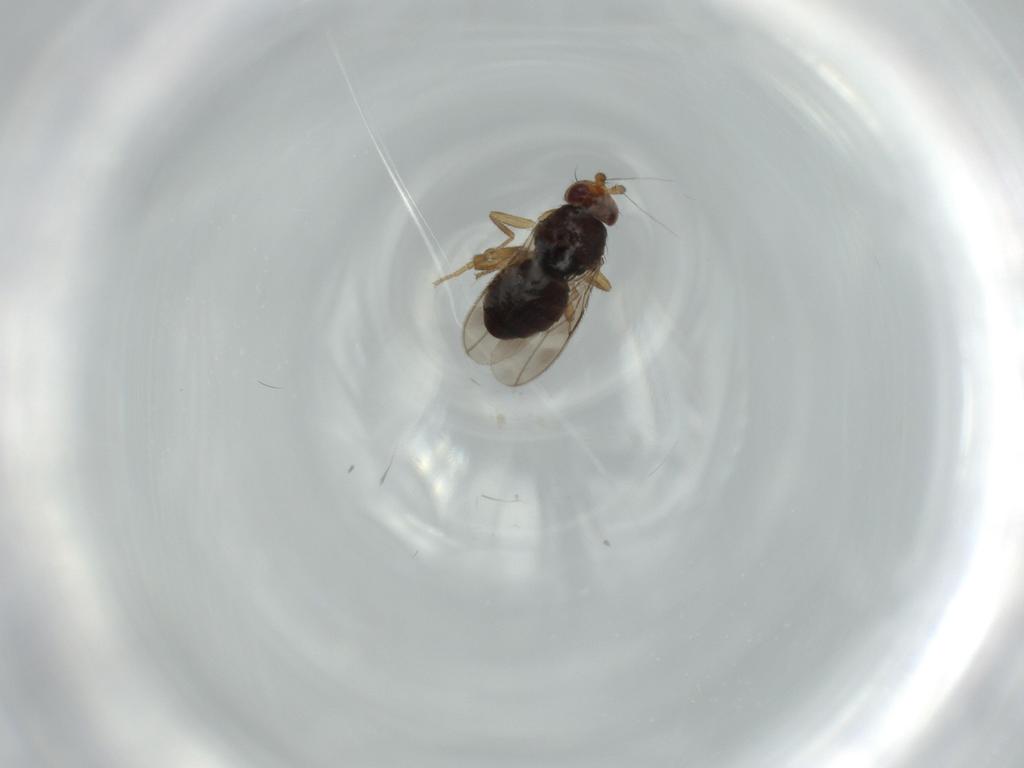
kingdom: Animalia
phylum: Arthropoda
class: Insecta
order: Diptera
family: Sphaeroceridae
